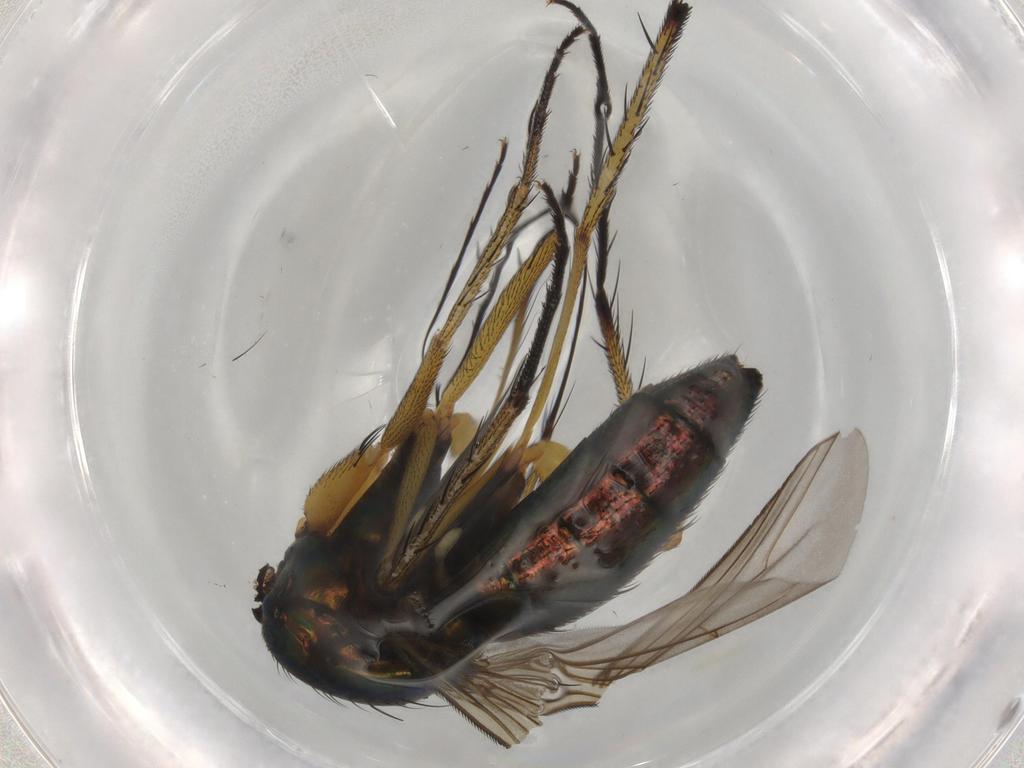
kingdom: Animalia
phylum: Arthropoda
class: Insecta
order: Diptera
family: Dolichopodidae
